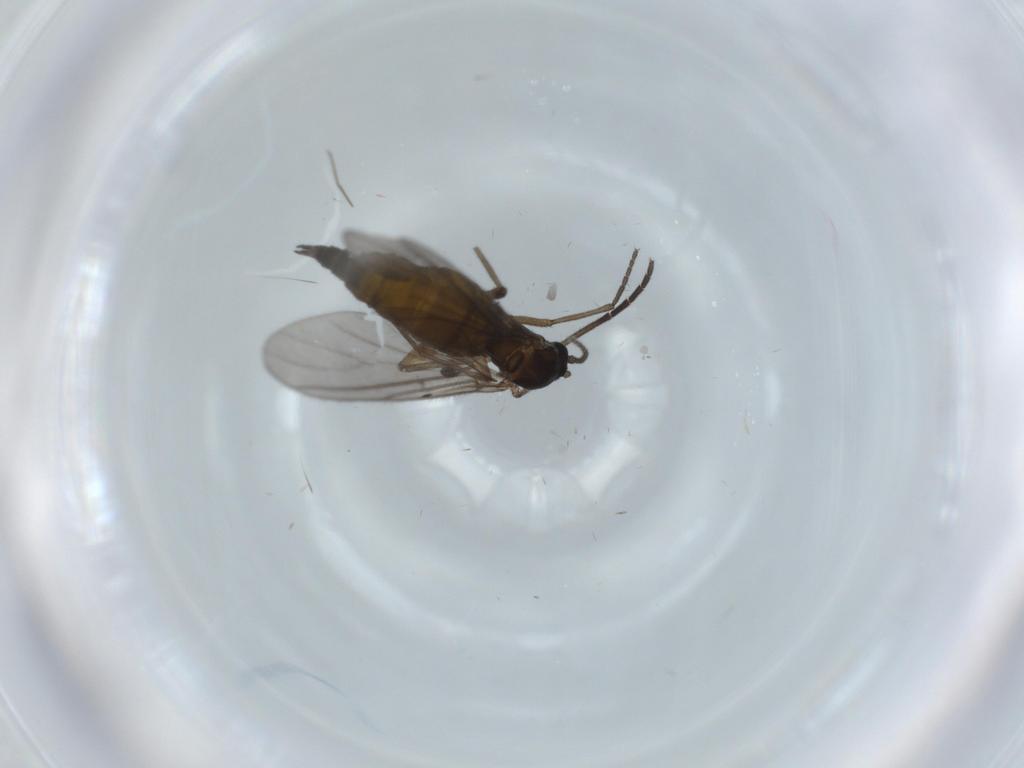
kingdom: Animalia
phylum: Arthropoda
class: Insecta
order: Diptera
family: Sciaridae
